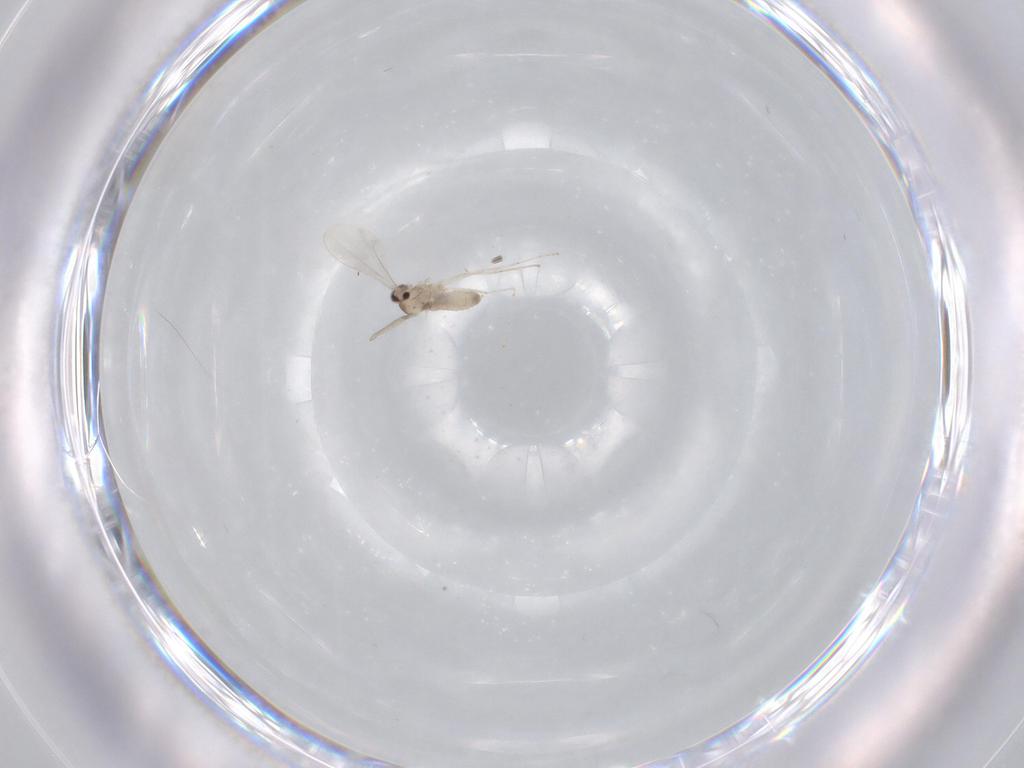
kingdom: Animalia
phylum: Arthropoda
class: Insecta
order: Diptera
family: Cecidomyiidae
